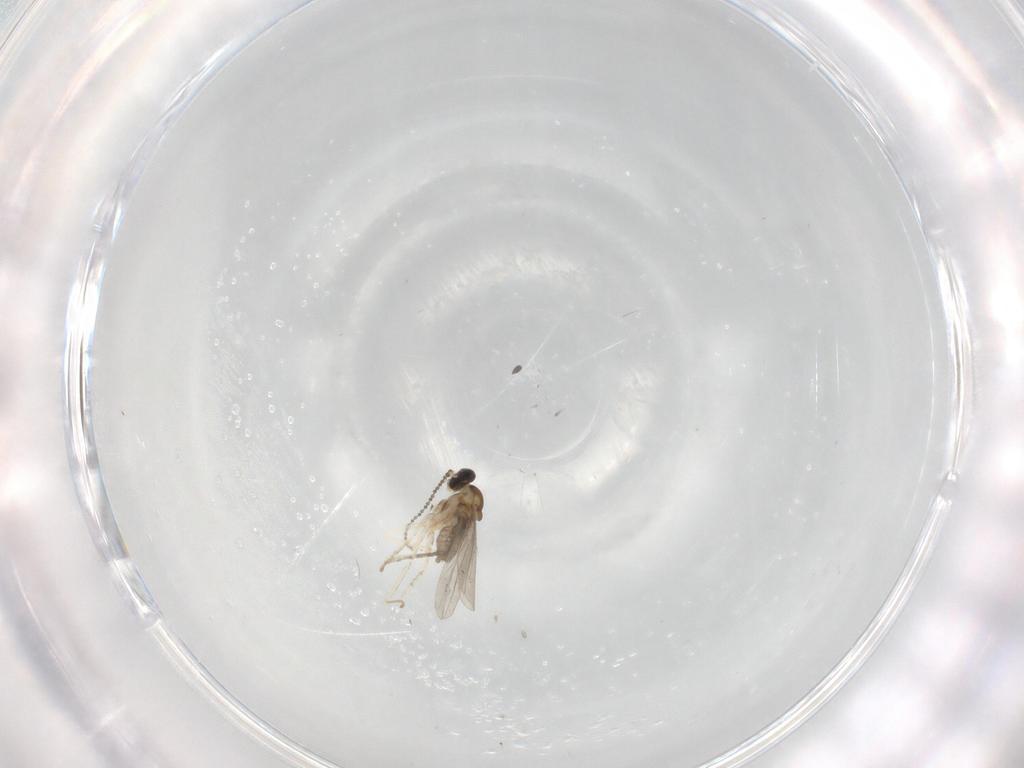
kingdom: Animalia
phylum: Arthropoda
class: Insecta
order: Diptera
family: Cecidomyiidae
